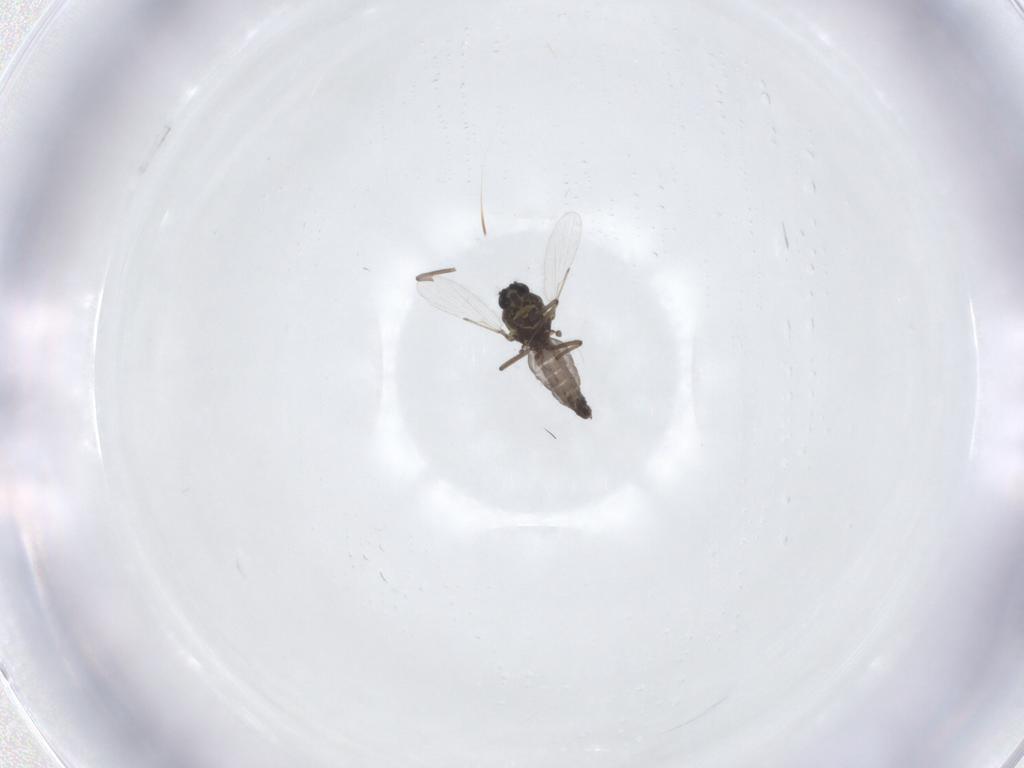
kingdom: Animalia
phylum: Arthropoda
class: Insecta
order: Diptera
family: Ceratopogonidae
